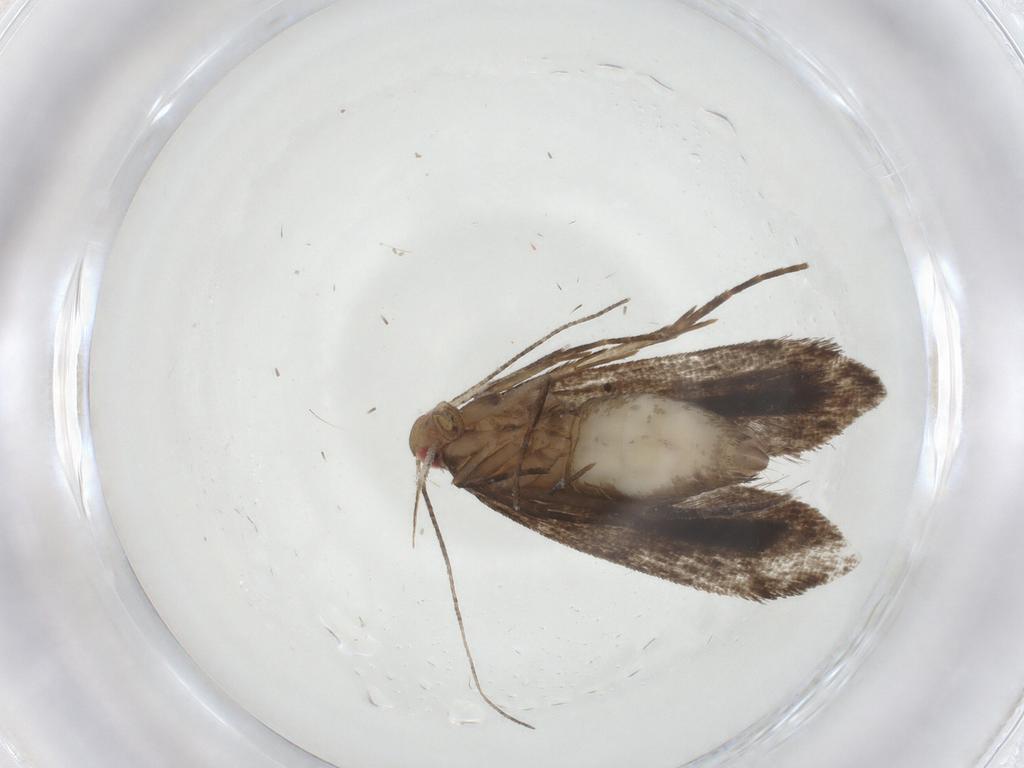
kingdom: Animalia
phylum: Arthropoda
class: Insecta
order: Lepidoptera
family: Gelechiidae
